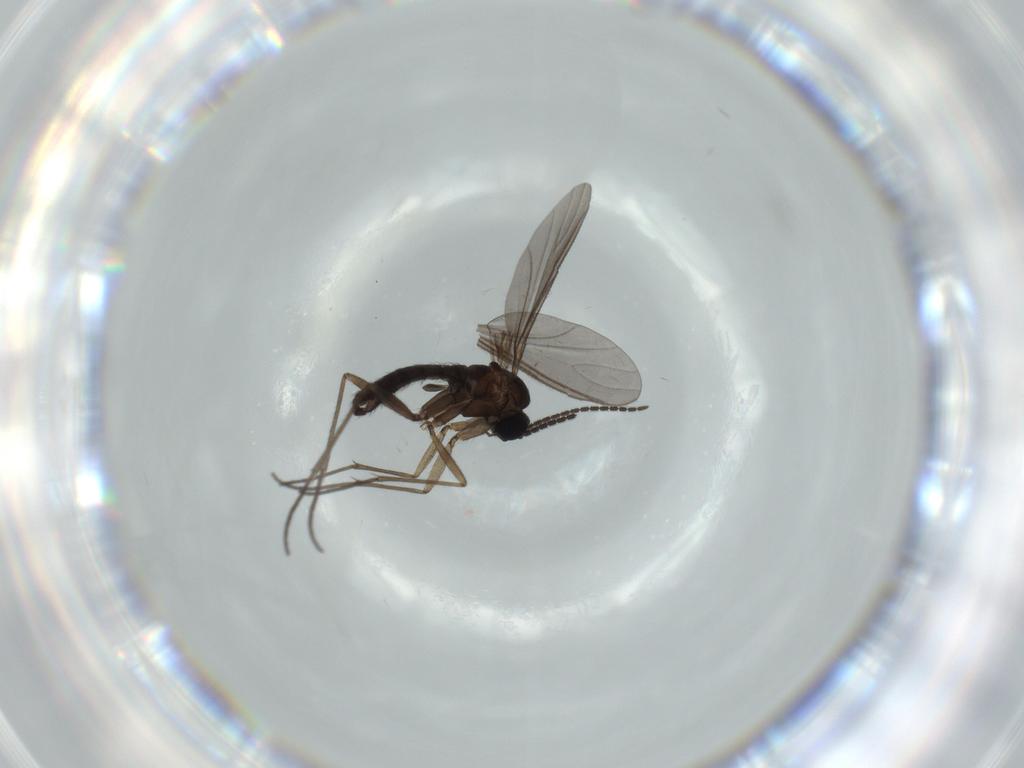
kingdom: Animalia
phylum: Arthropoda
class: Insecta
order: Diptera
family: Sciaridae
